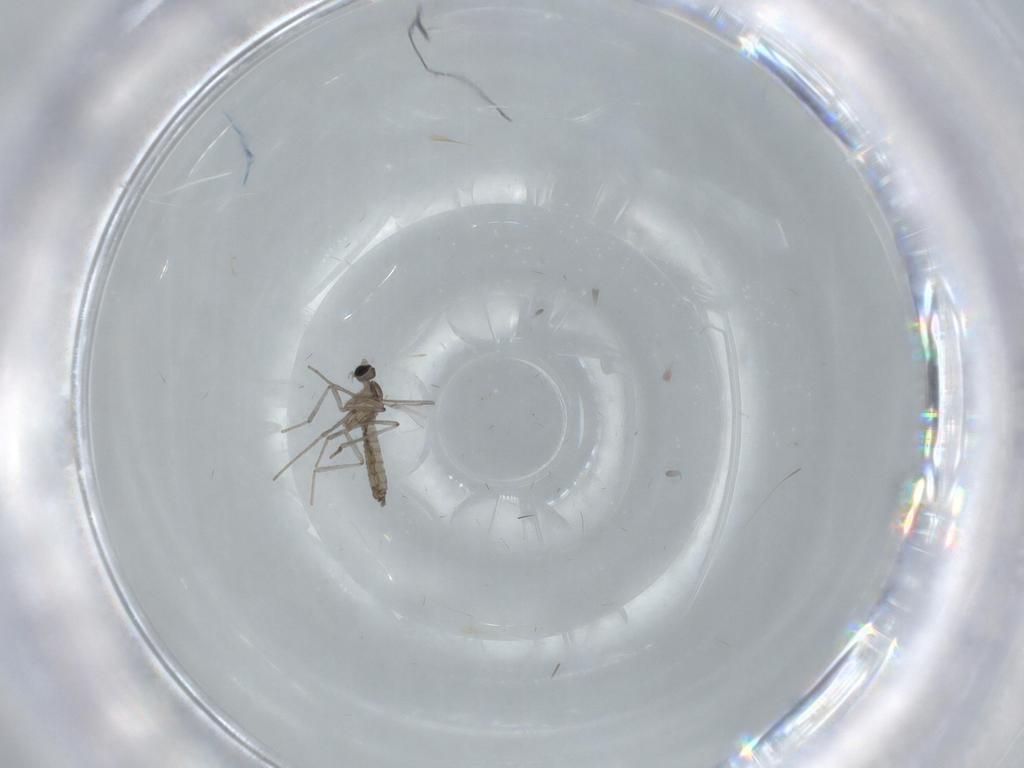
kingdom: Animalia
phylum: Arthropoda
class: Insecta
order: Diptera
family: Cecidomyiidae
